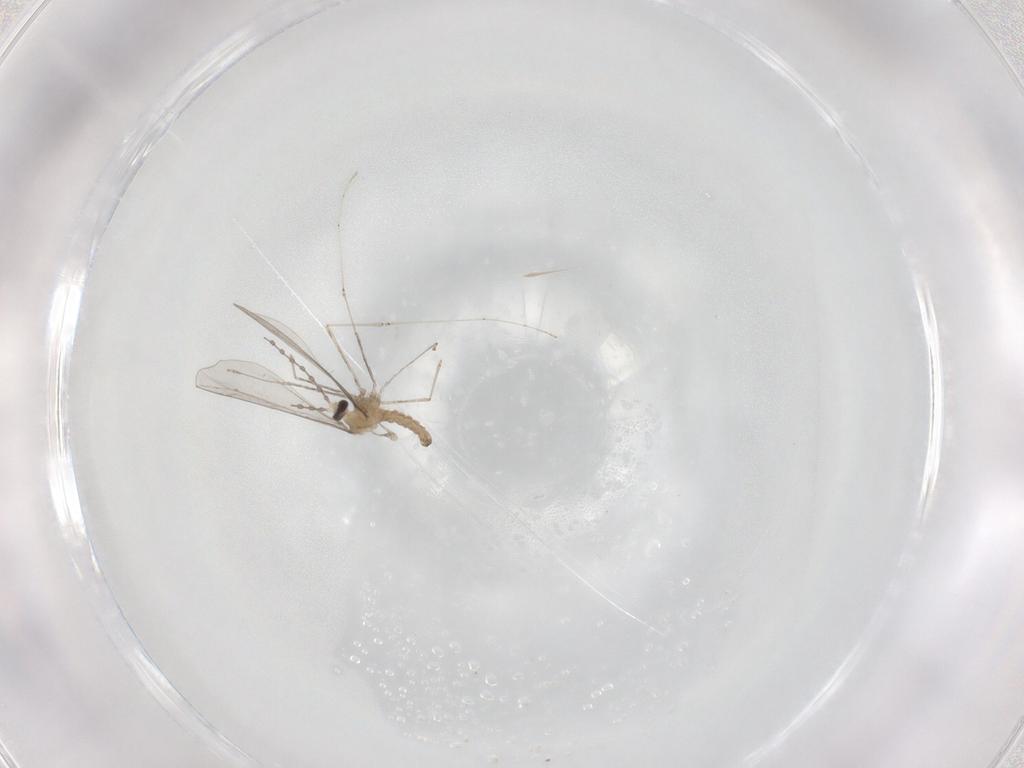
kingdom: Animalia
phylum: Arthropoda
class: Insecta
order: Diptera
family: Cecidomyiidae
